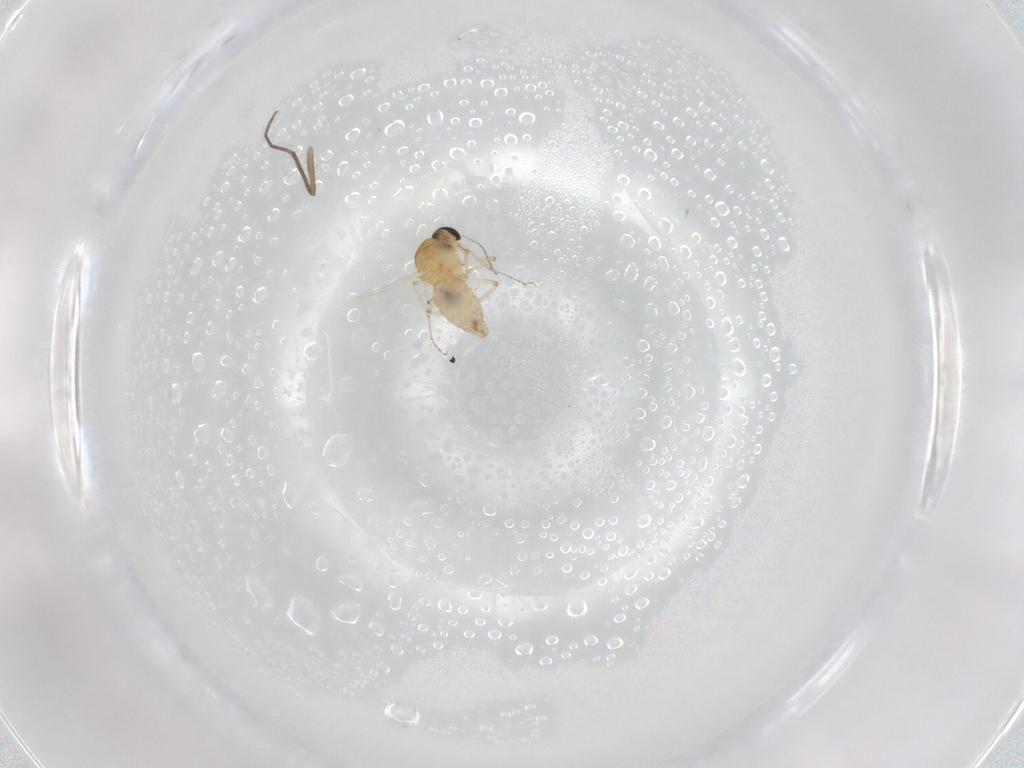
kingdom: Animalia
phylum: Arthropoda
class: Insecta
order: Diptera
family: Ceratopogonidae
